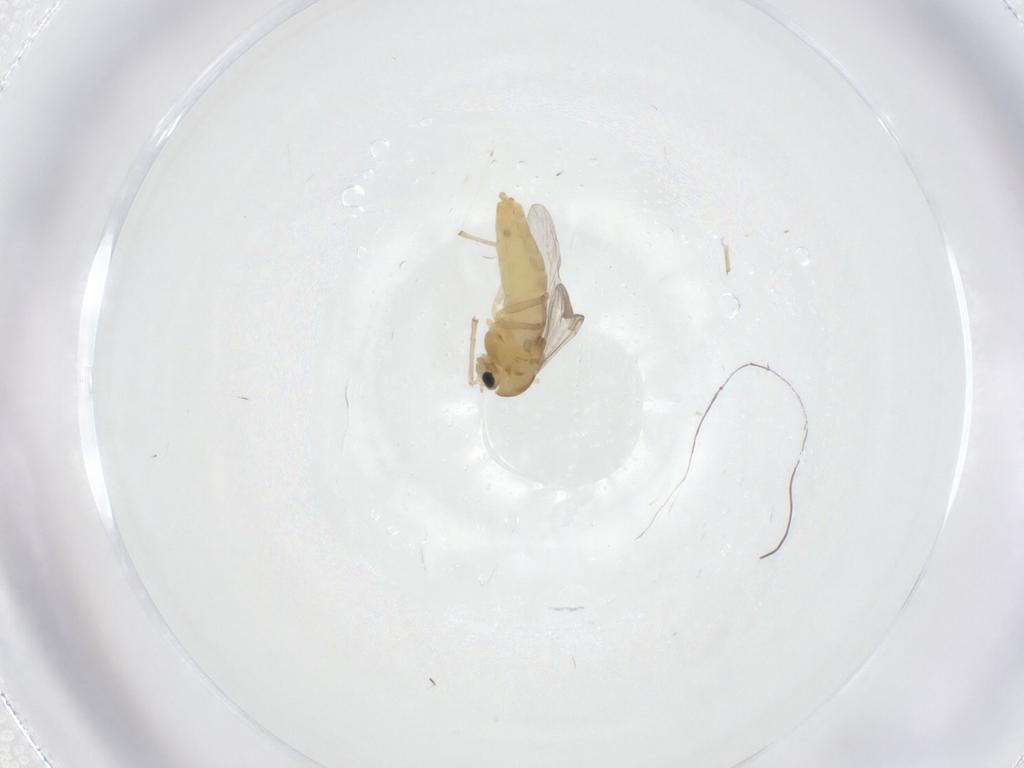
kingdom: Animalia
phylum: Arthropoda
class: Insecta
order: Diptera
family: Chironomidae
